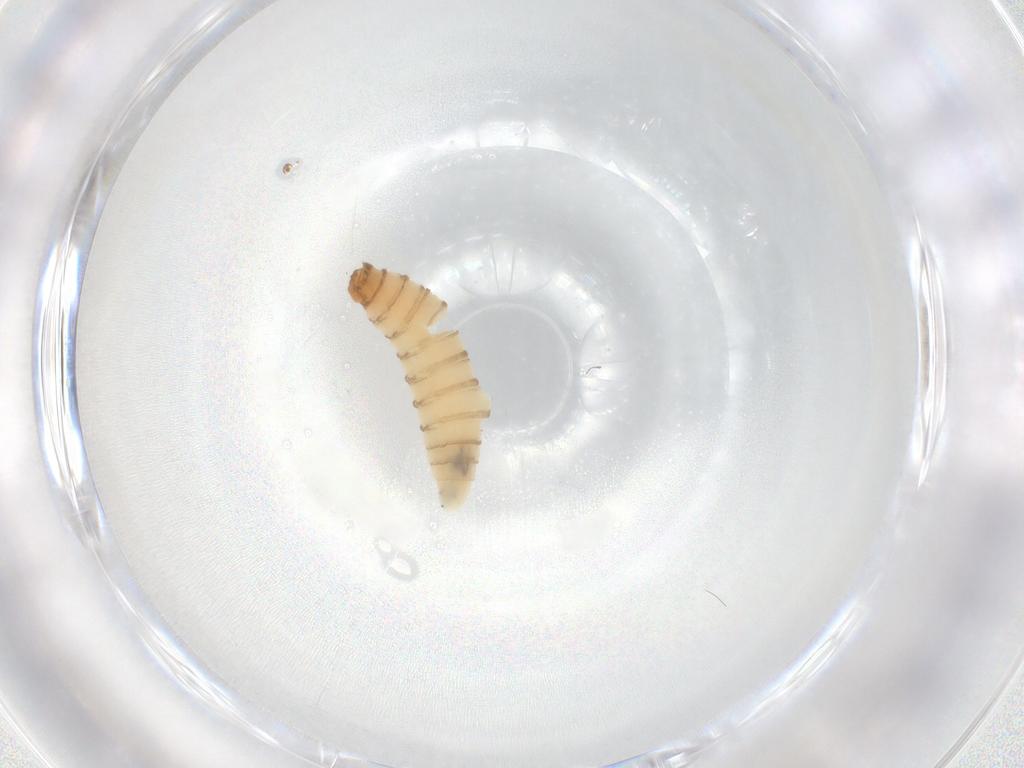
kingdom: Animalia
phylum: Arthropoda
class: Insecta
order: Diptera
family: Sarcophagidae
